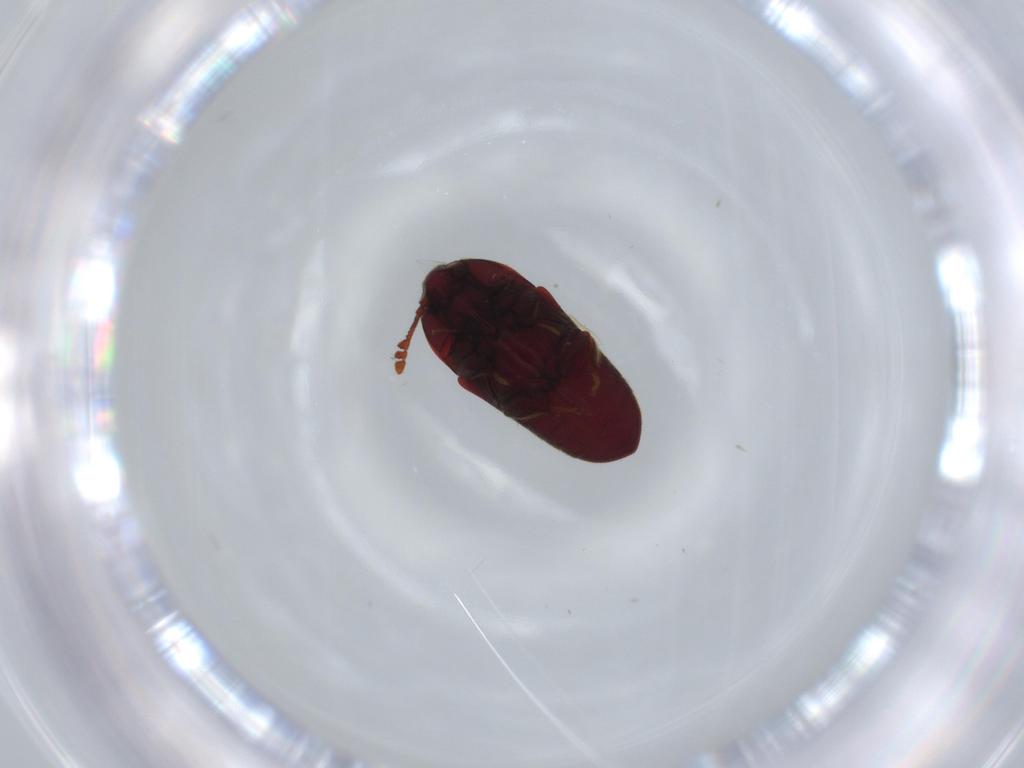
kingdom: Animalia
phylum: Arthropoda
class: Insecta
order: Coleoptera
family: Throscidae
